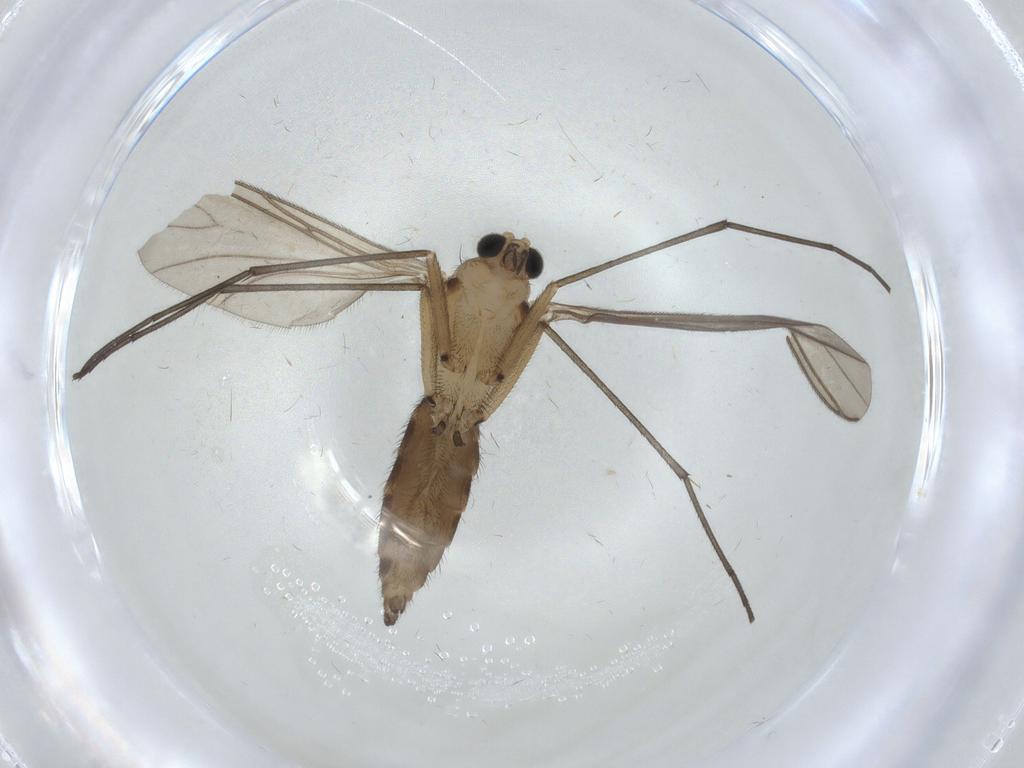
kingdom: Animalia
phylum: Arthropoda
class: Insecta
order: Diptera
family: Sciaridae
